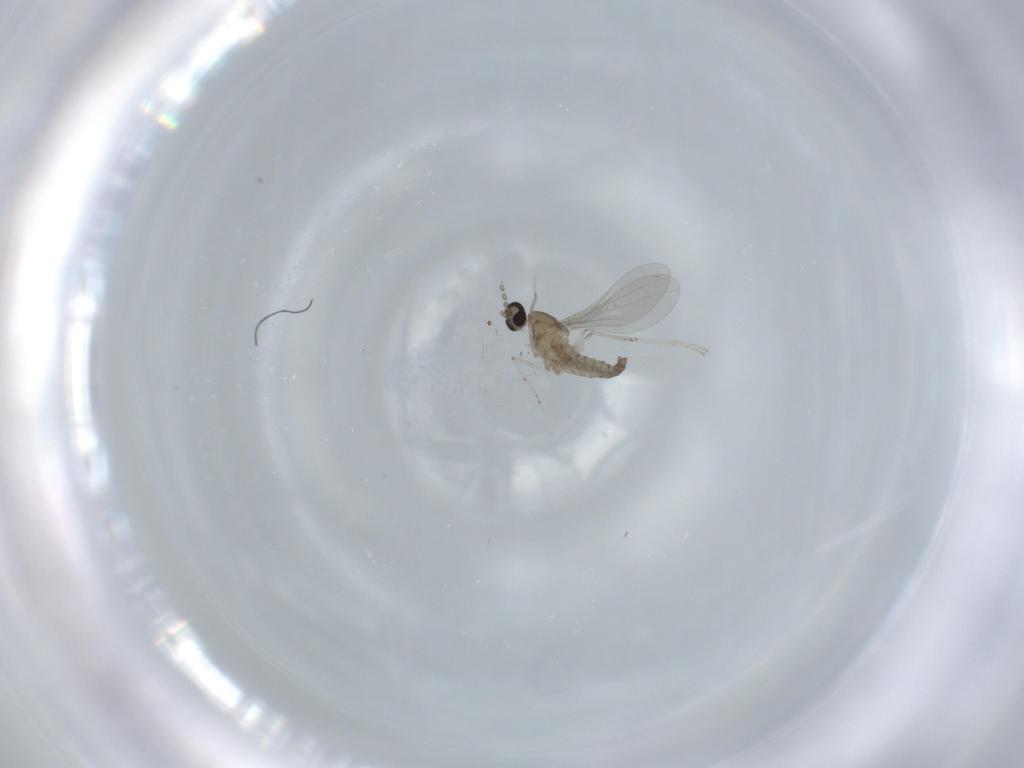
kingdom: Animalia
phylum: Arthropoda
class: Insecta
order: Diptera
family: Cecidomyiidae
